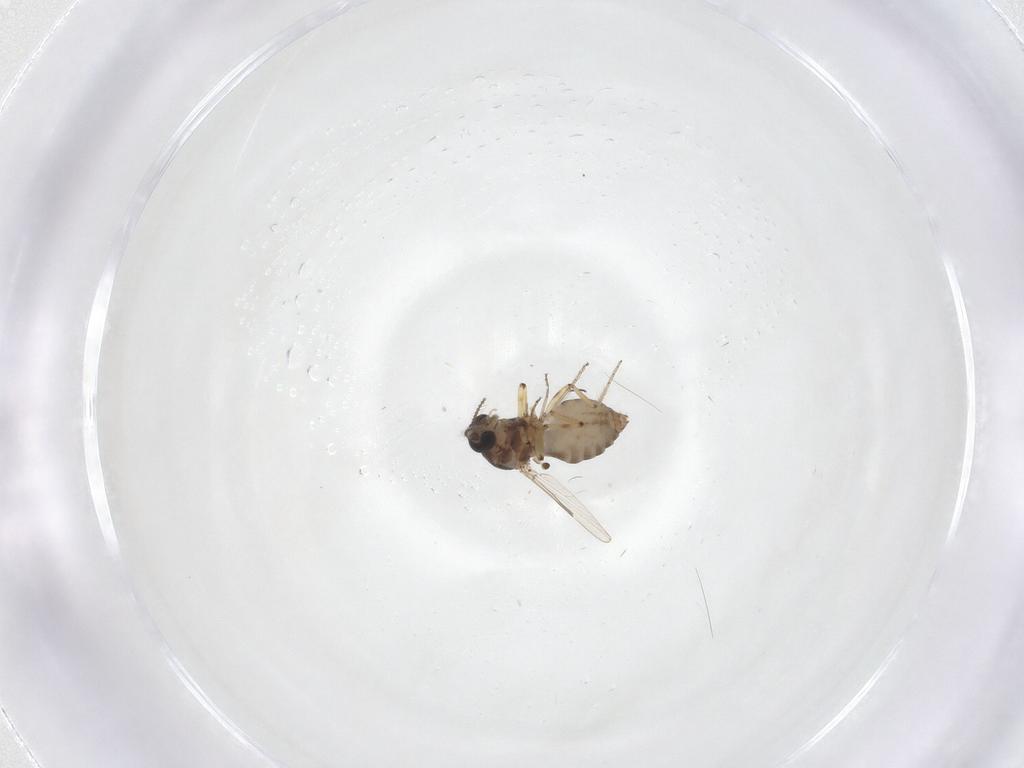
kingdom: Animalia
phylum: Arthropoda
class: Insecta
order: Diptera
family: Ceratopogonidae
